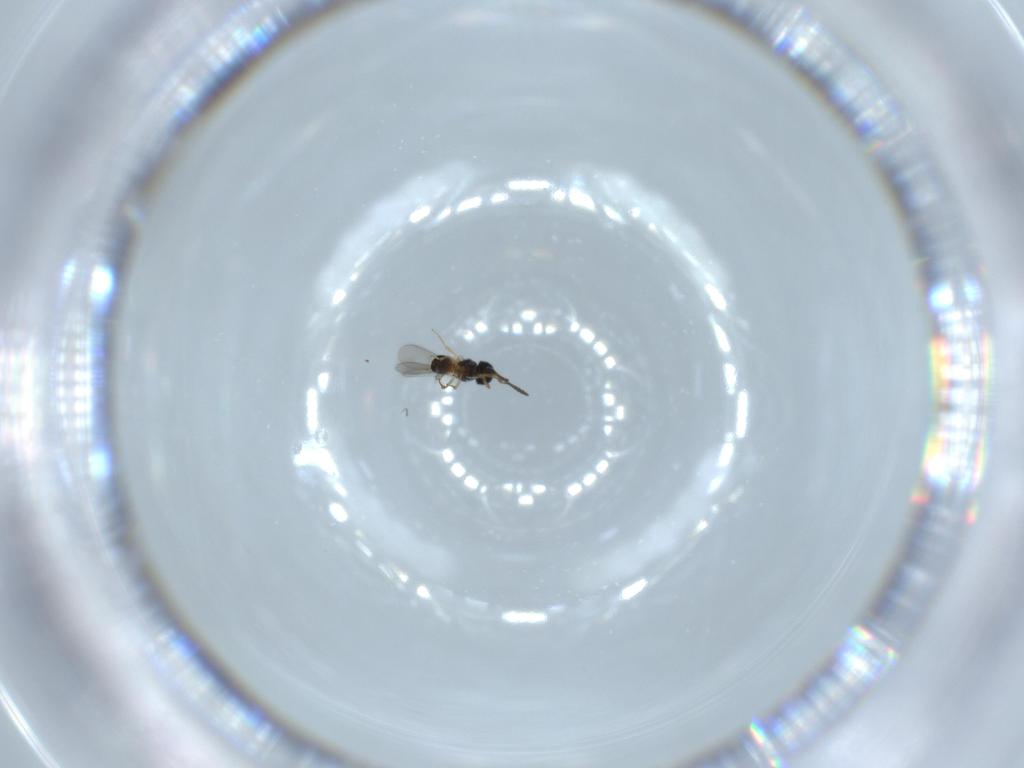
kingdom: Animalia
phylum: Arthropoda
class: Insecta
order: Hymenoptera
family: Scelionidae
